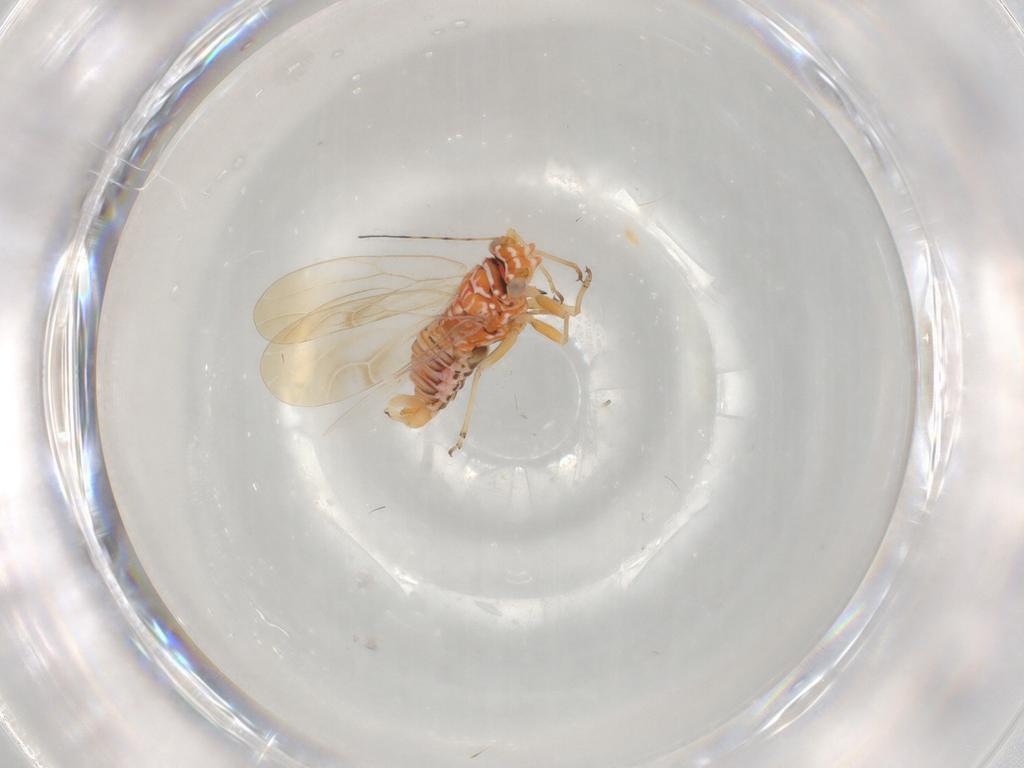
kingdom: Animalia
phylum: Arthropoda
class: Insecta
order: Hemiptera
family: Psyllidae
